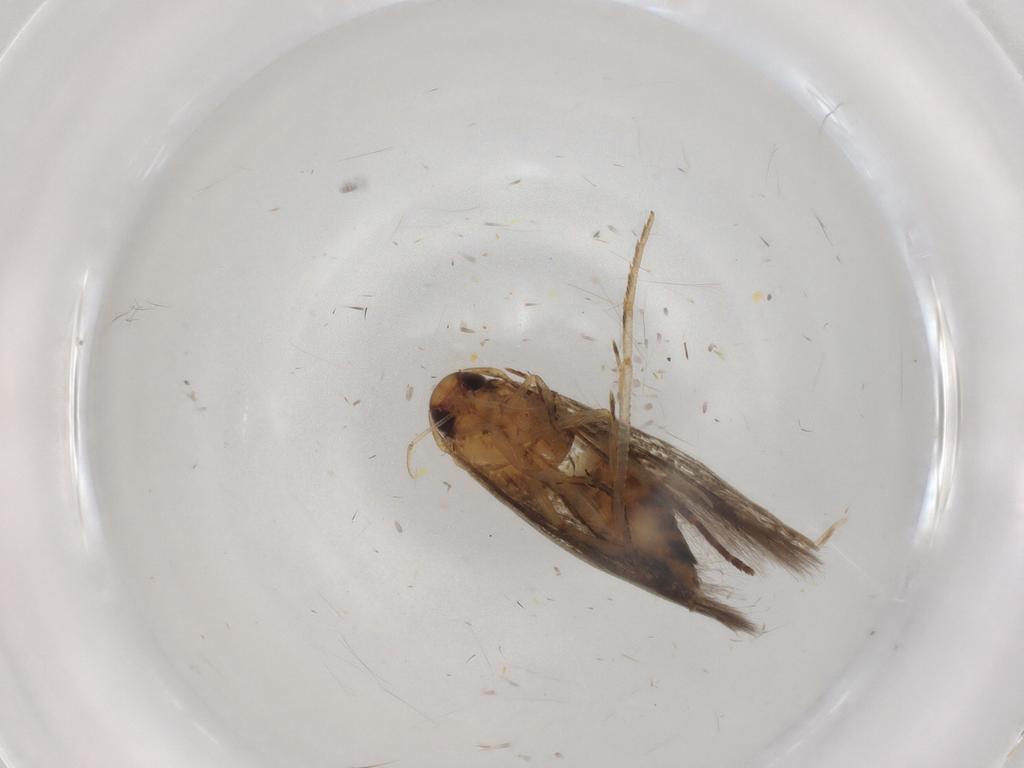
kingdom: Animalia
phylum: Arthropoda
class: Insecta
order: Lepidoptera
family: Cosmopterigidae
